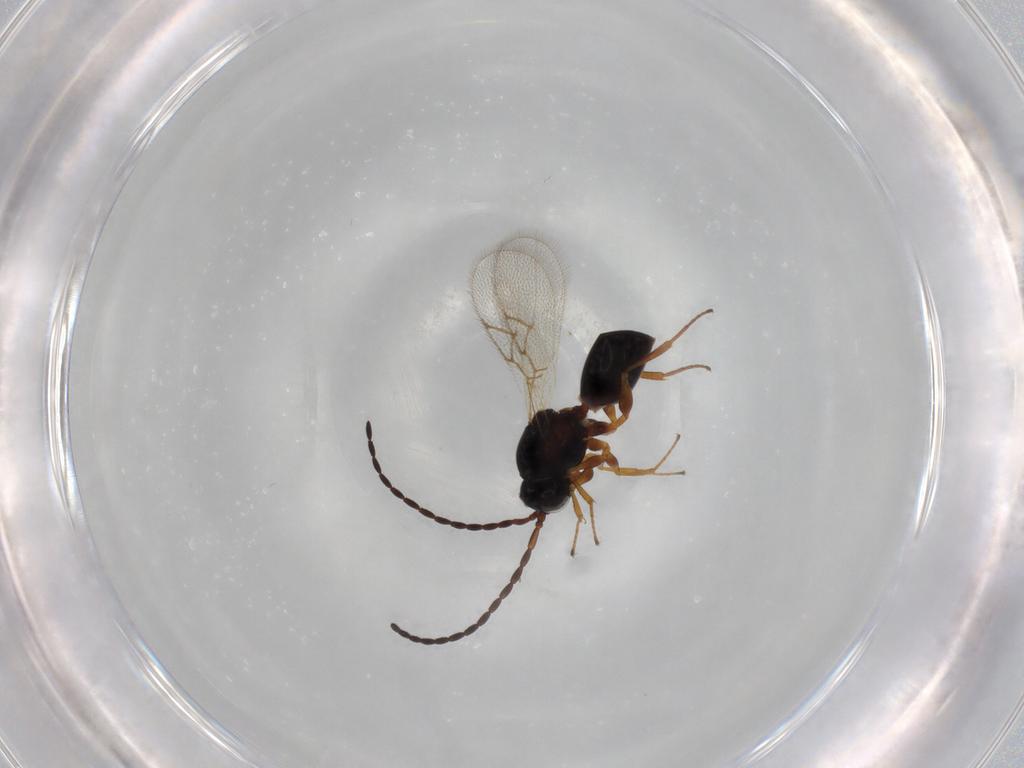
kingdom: Animalia
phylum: Arthropoda
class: Insecta
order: Hymenoptera
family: Figitidae
